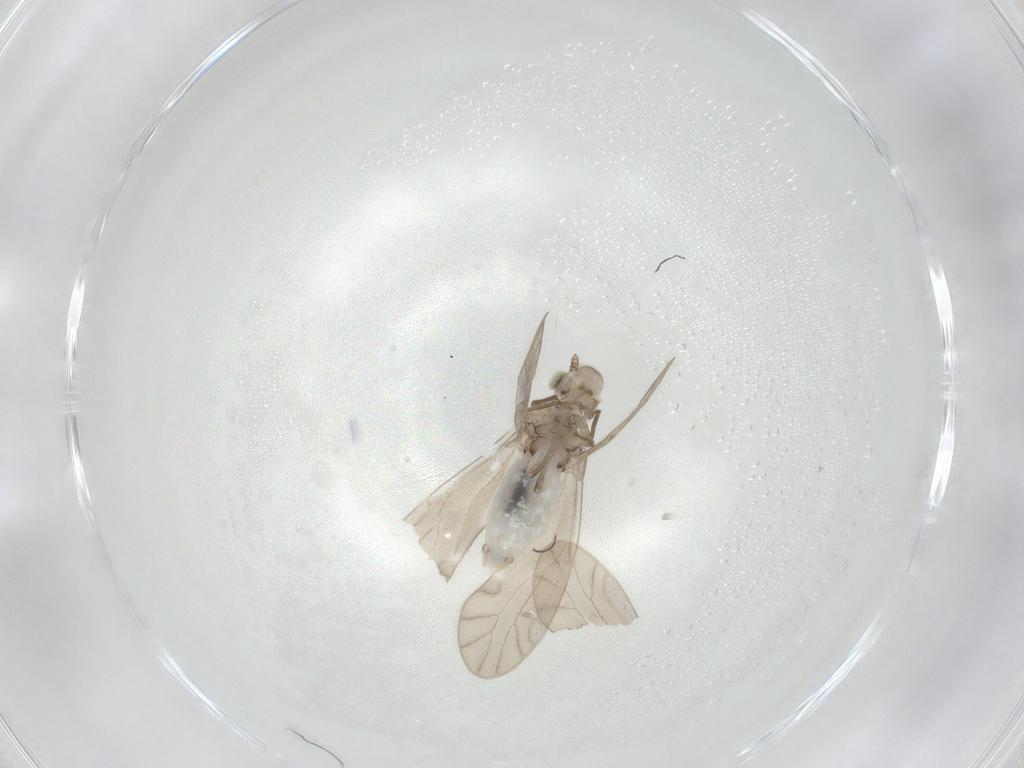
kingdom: Animalia
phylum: Arthropoda
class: Insecta
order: Psocodea
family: Caeciliusidae
